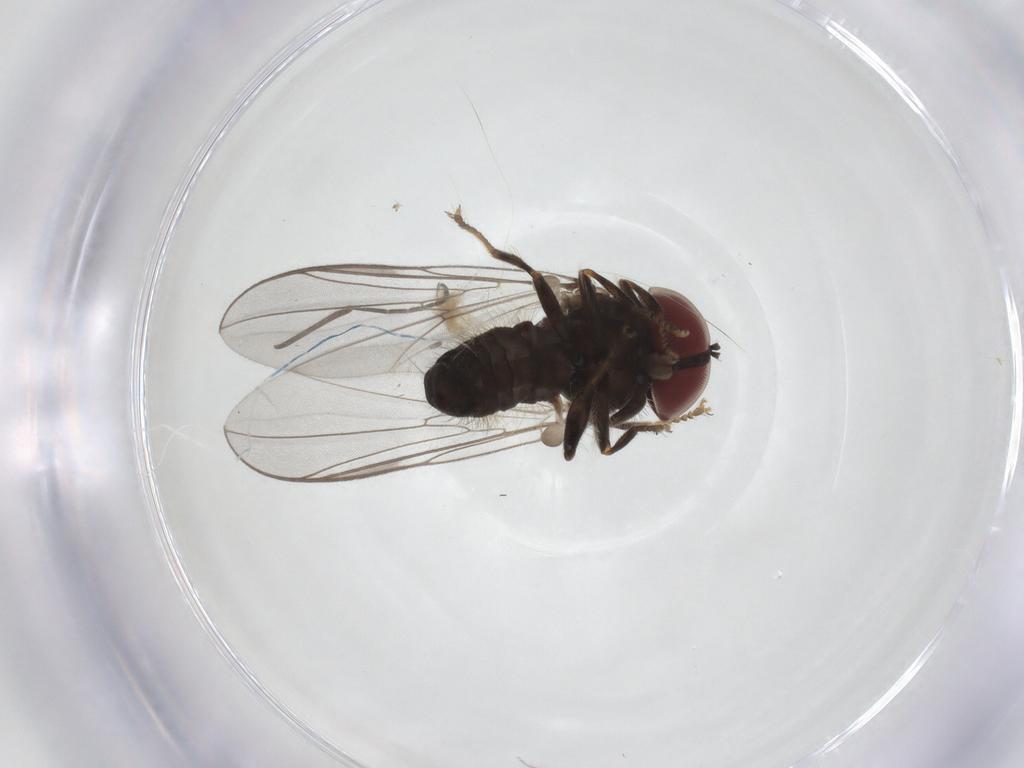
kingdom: Animalia
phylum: Arthropoda
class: Insecta
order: Diptera
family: Pipunculidae
